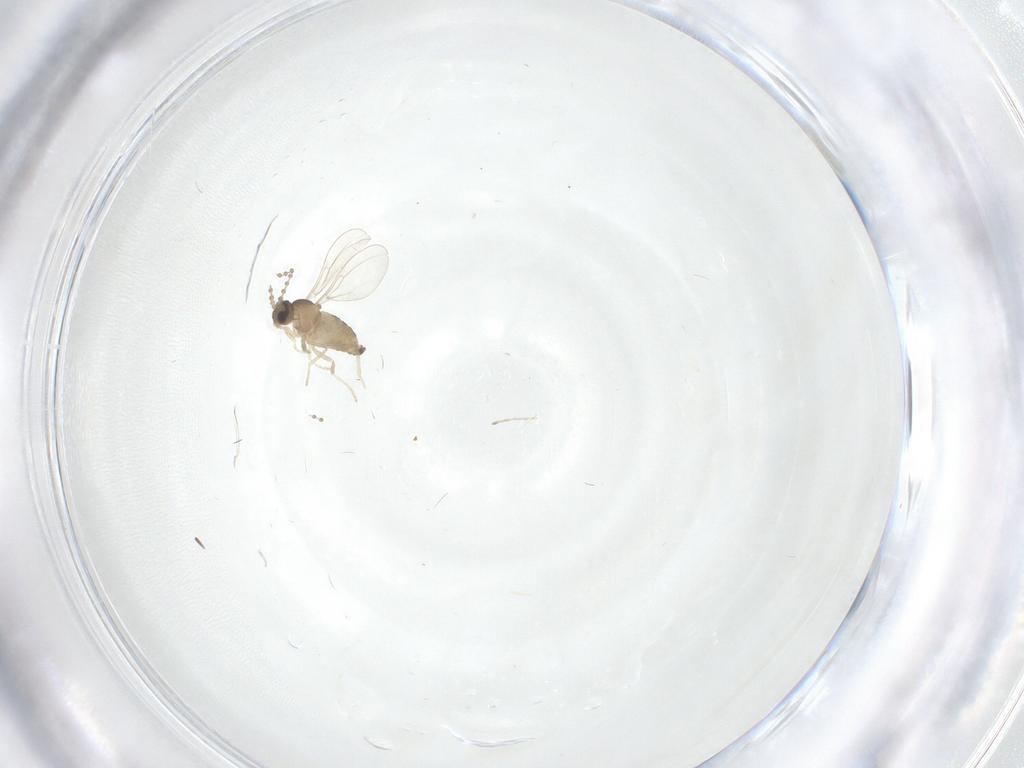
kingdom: Animalia
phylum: Arthropoda
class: Insecta
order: Diptera
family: Cecidomyiidae
